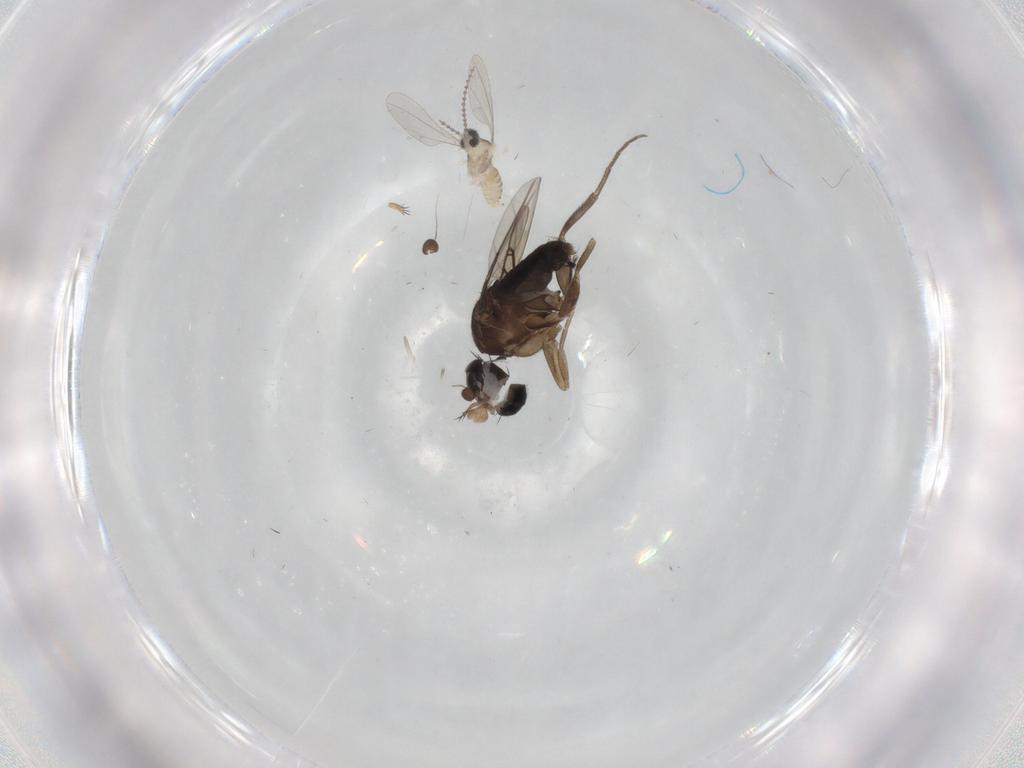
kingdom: Animalia
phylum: Arthropoda
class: Insecta
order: Diptera
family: Phoridae
